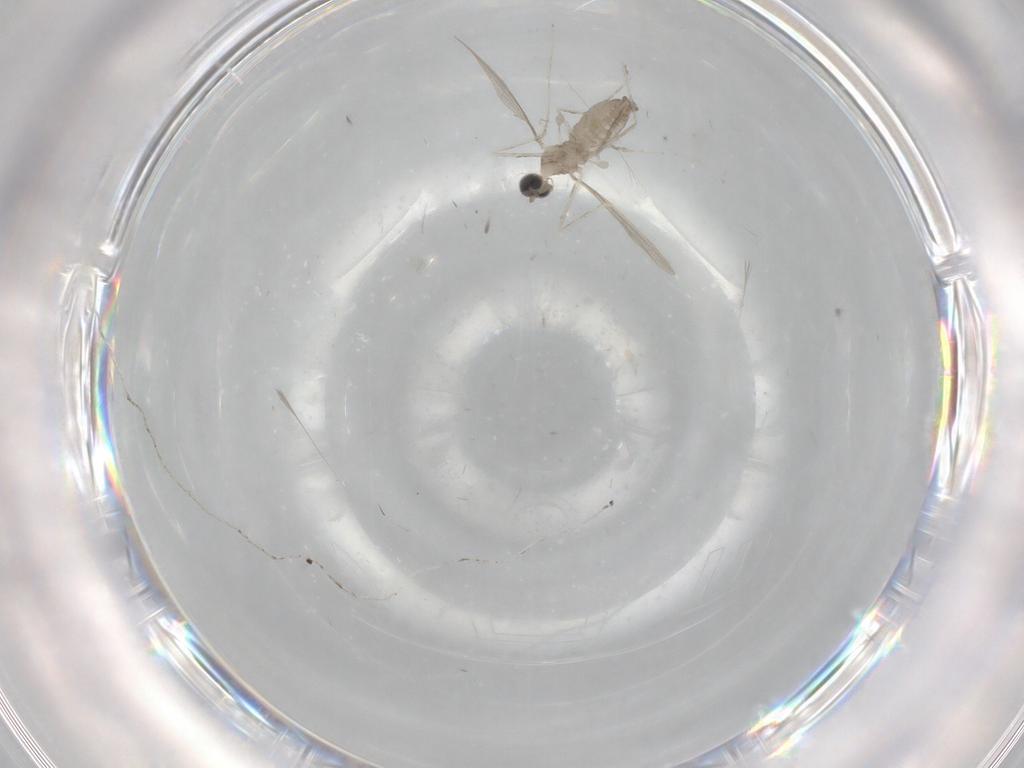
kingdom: Animalia
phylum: Arthropoda
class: Insecta
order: Diptera
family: Cecidomyiidae
